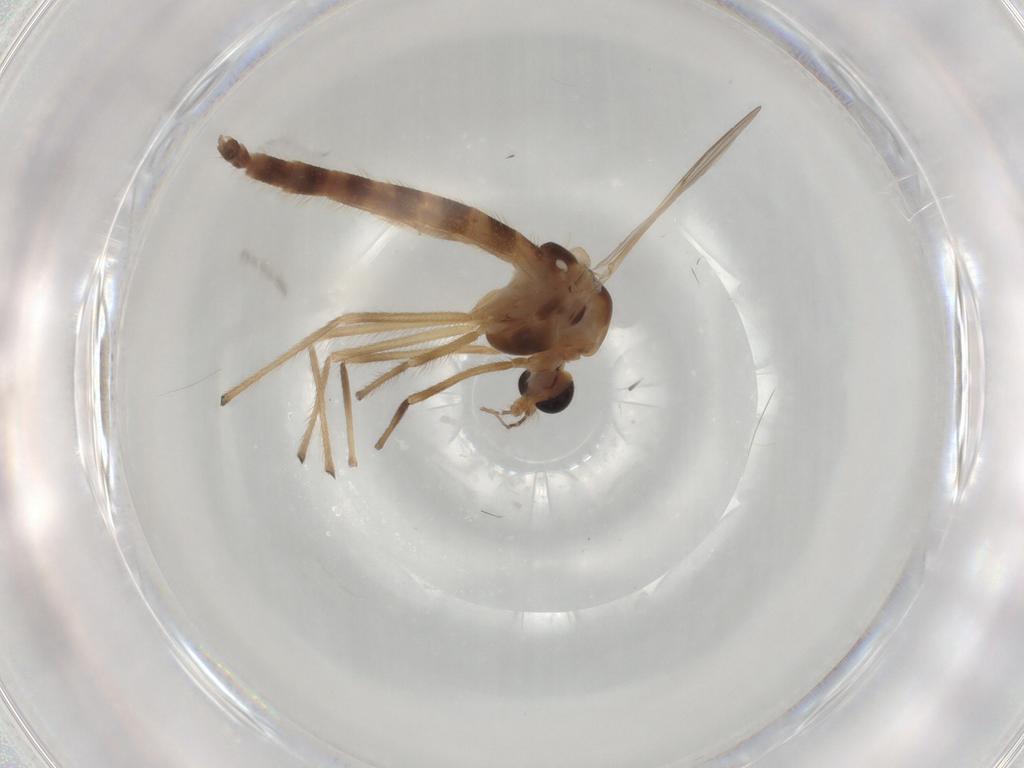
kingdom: Animalia
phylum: Arthropoda
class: Insecta
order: Diptera
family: Chironomidae
